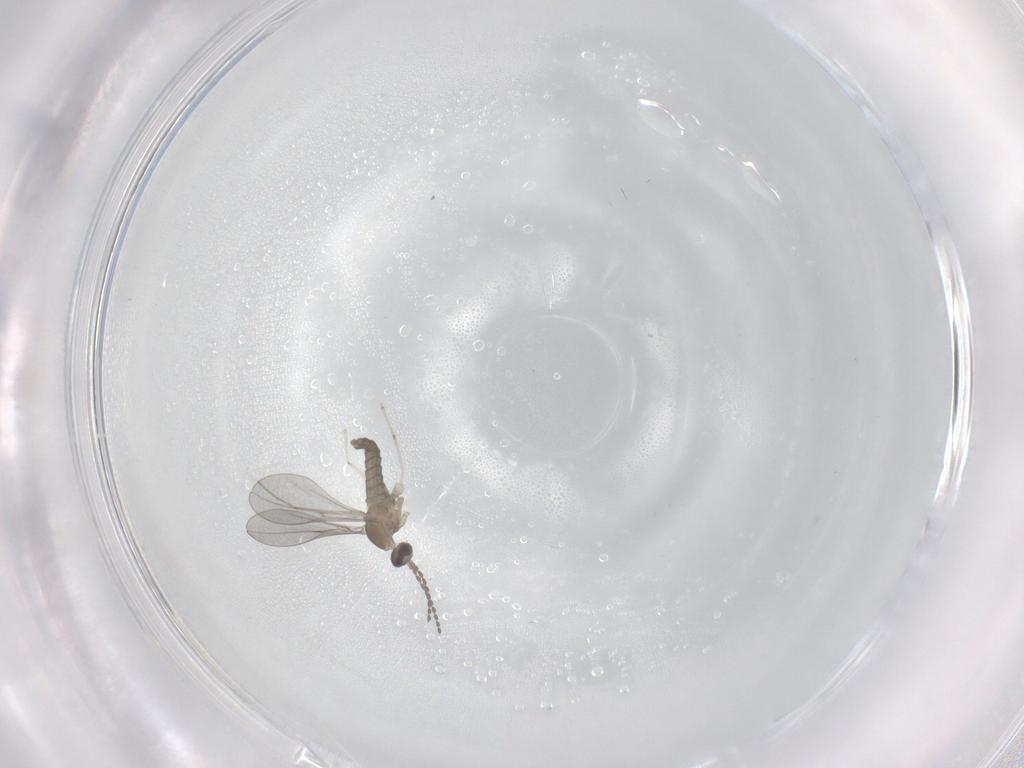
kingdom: Animalia
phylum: Arthropoda
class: Insecta
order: Diptera
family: Cecidomyiidae
